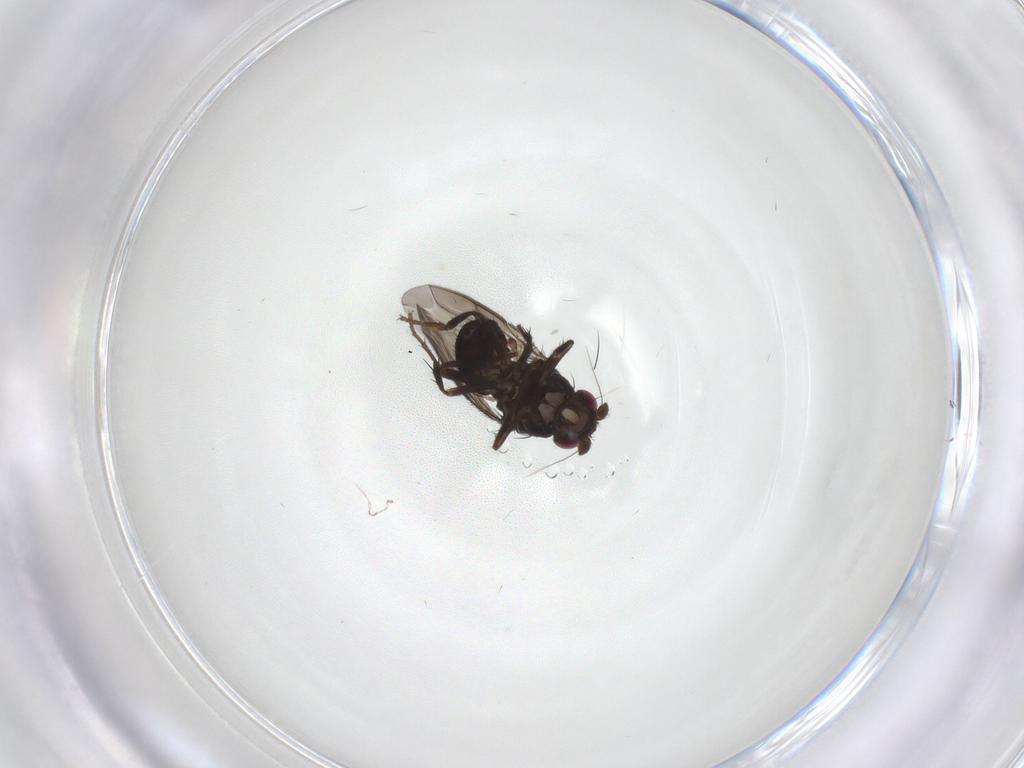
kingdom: Animalia
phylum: Arthropoda
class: Insecta
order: Diptera
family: Sphaeroceridae
